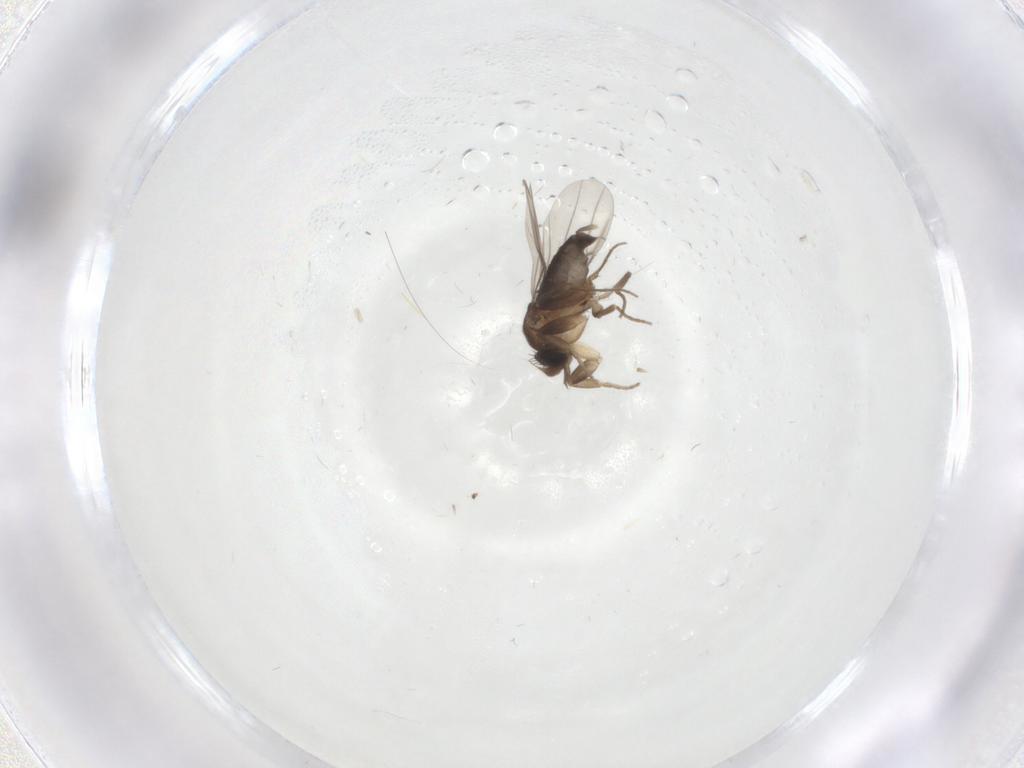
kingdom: Animalia
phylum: Arthropoda
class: Insecta
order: Diptera
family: Phoridae
